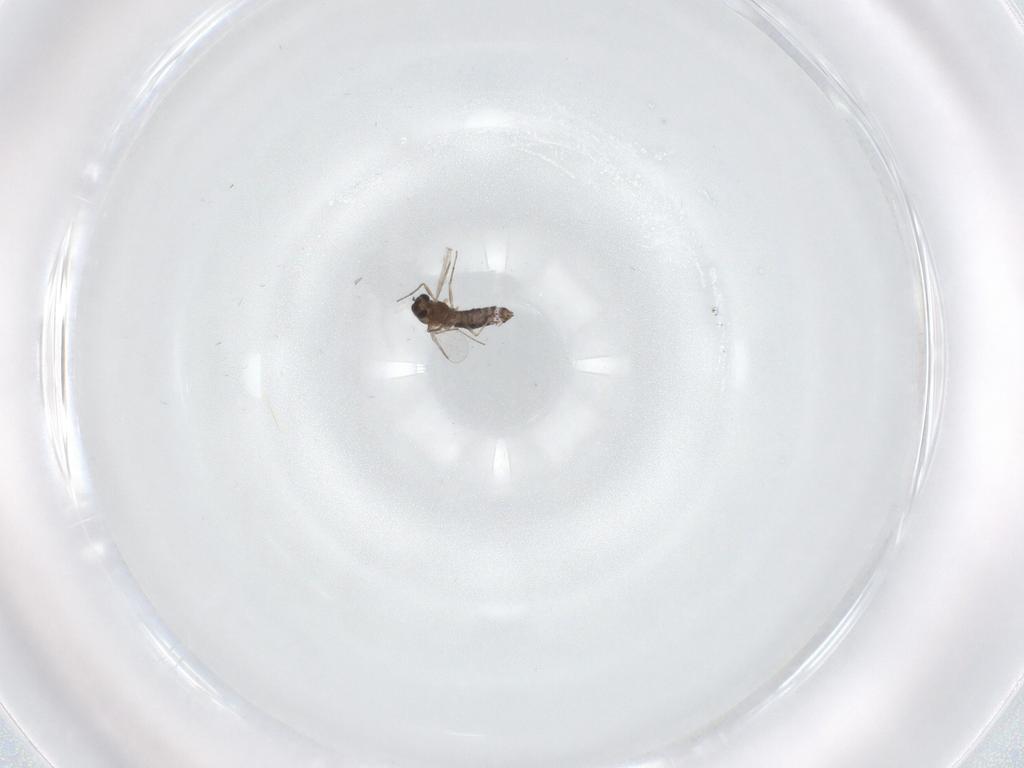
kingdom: Animalia
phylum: Arthropoda
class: Insecta
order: Diptera
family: Chironomidae
